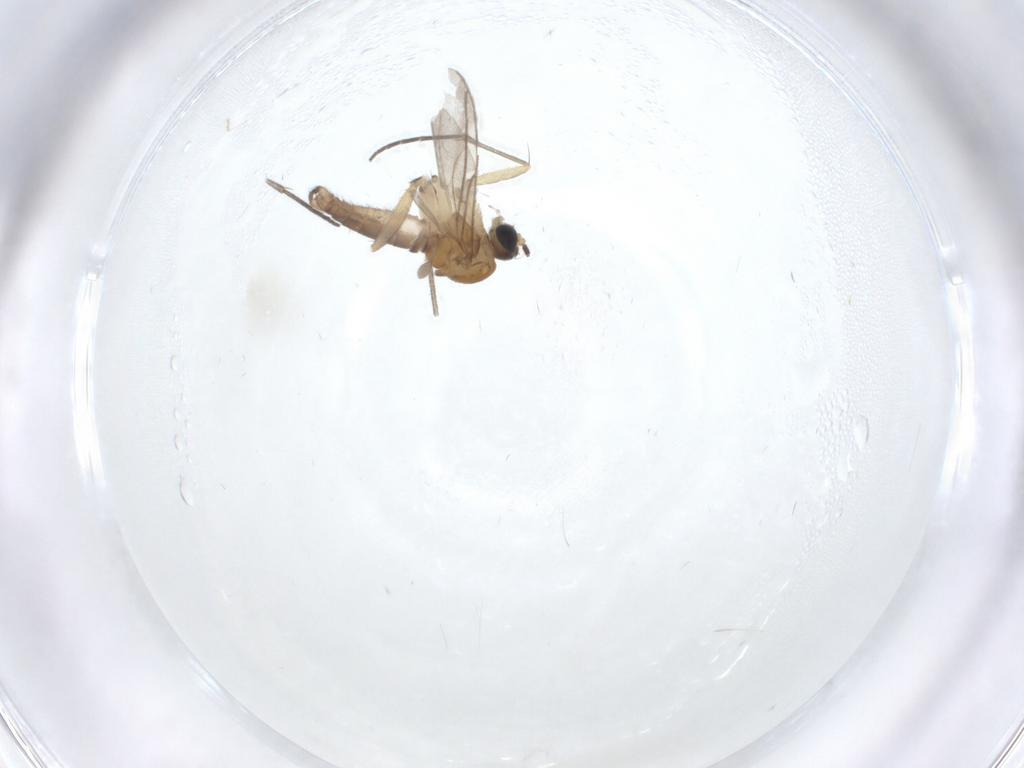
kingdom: Animalia
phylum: Arthropoda
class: Insecta
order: Diptera
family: Sciaridae
